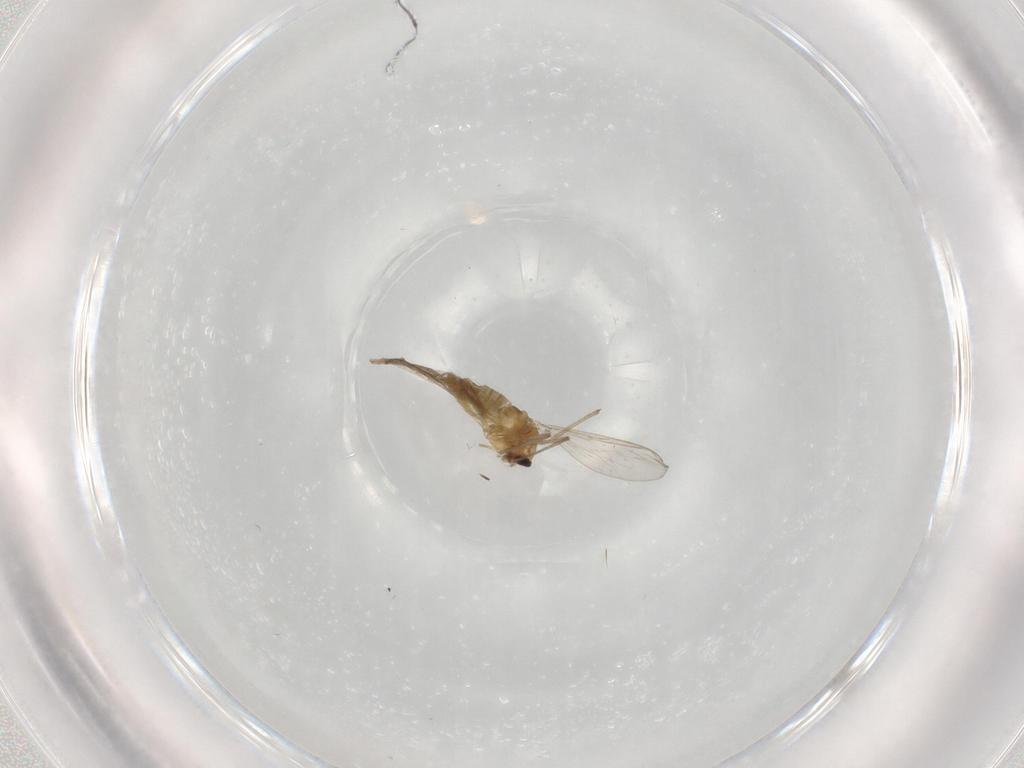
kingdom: Animalia
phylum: Arthropoda
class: Insecta
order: Diptera
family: Chironomidae
